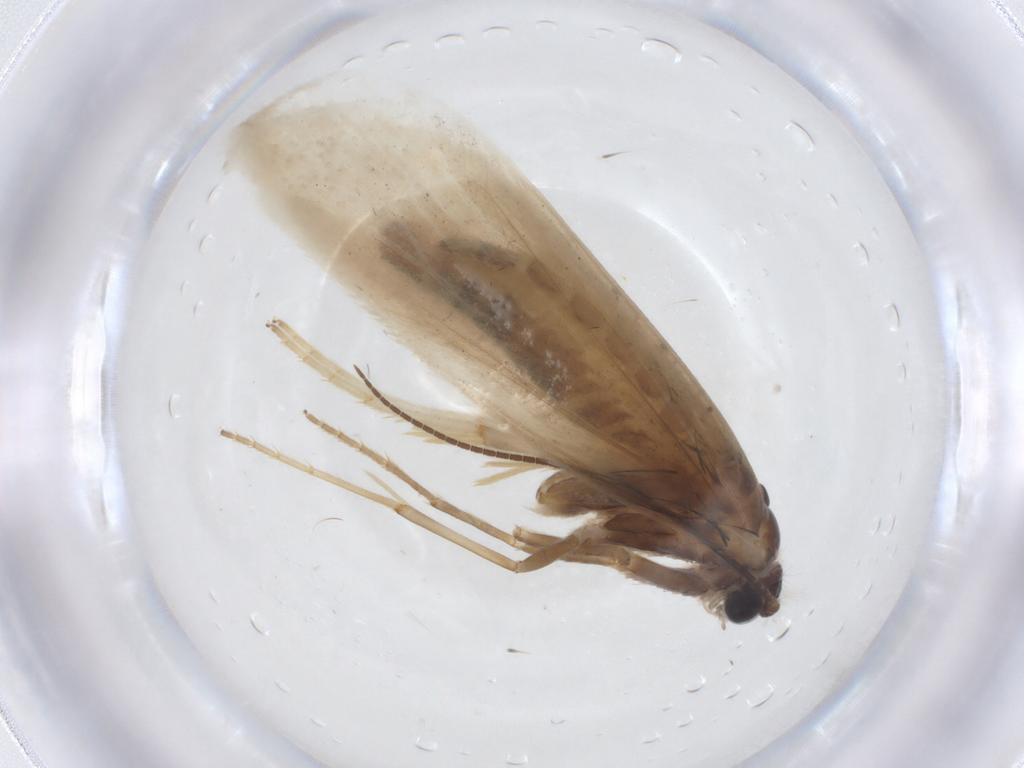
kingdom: Animalia
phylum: Arthropoda
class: Insecta
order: Lepidoptera
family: Tridentaformidae
